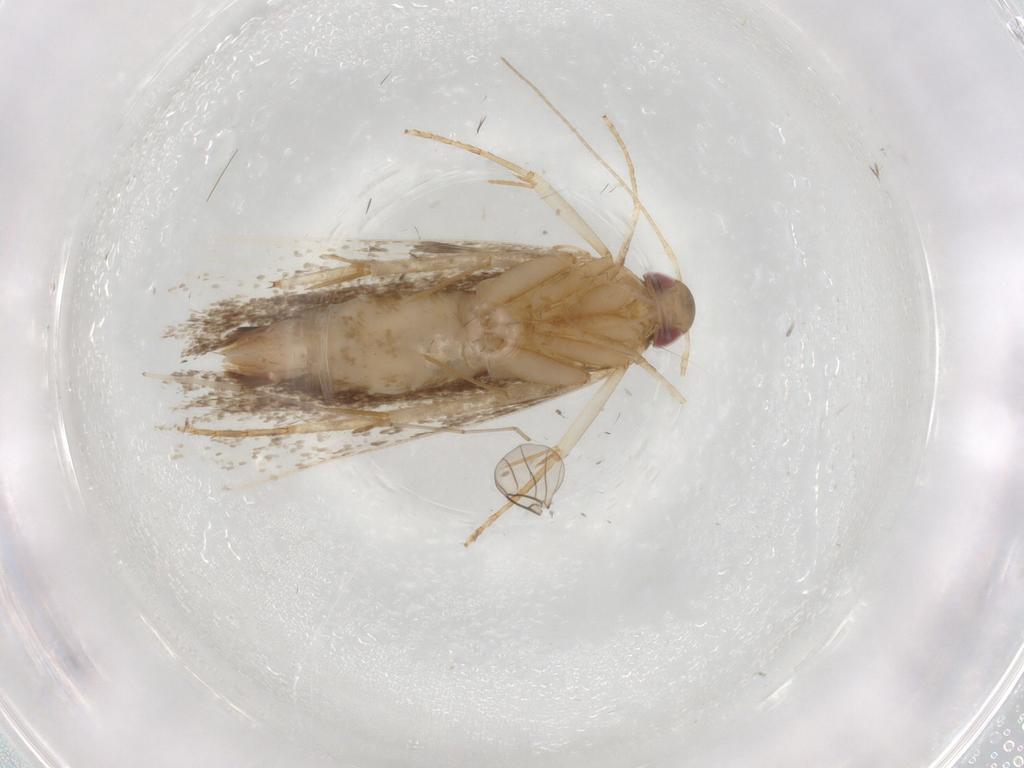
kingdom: Animalia
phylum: Arthropoda
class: Insecta
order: Lepidoptera
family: Gelechiidae
